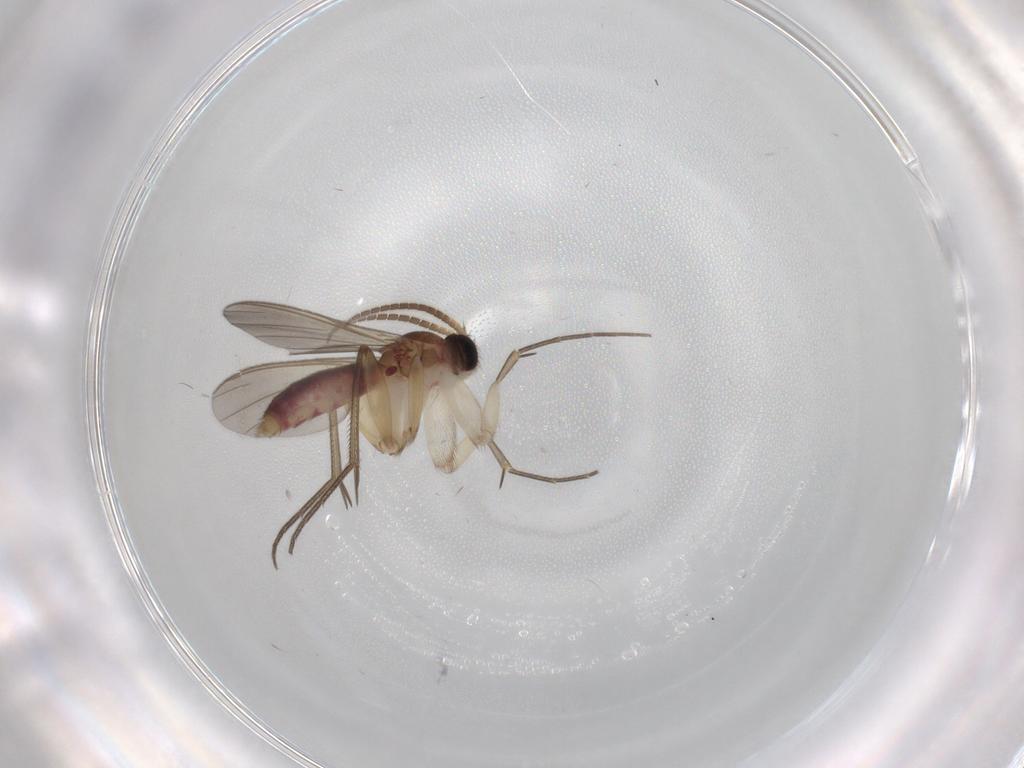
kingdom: Animalia
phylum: Arthropoda
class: Insecta
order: Diptera
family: Mycetophilidae
